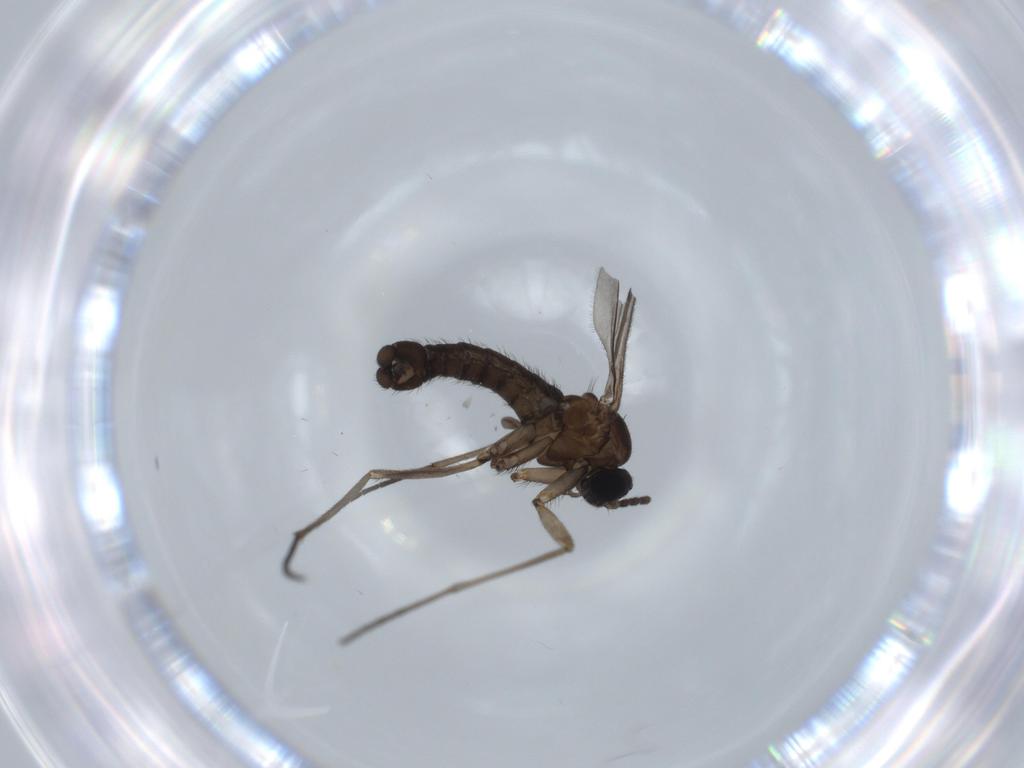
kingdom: Animalia
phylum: Arthropoda
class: Insecta
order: Diptera
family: Sciaridae
